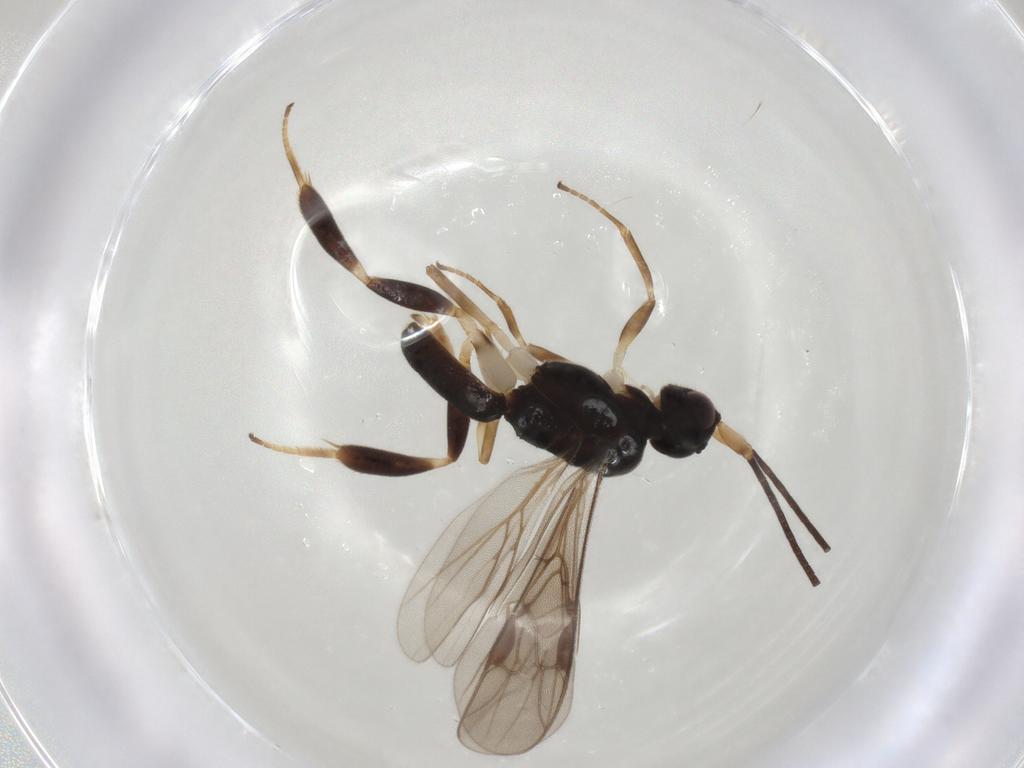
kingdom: Animalia
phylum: Arthropoda
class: Insecta
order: Hymenoptera
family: Braconidae
